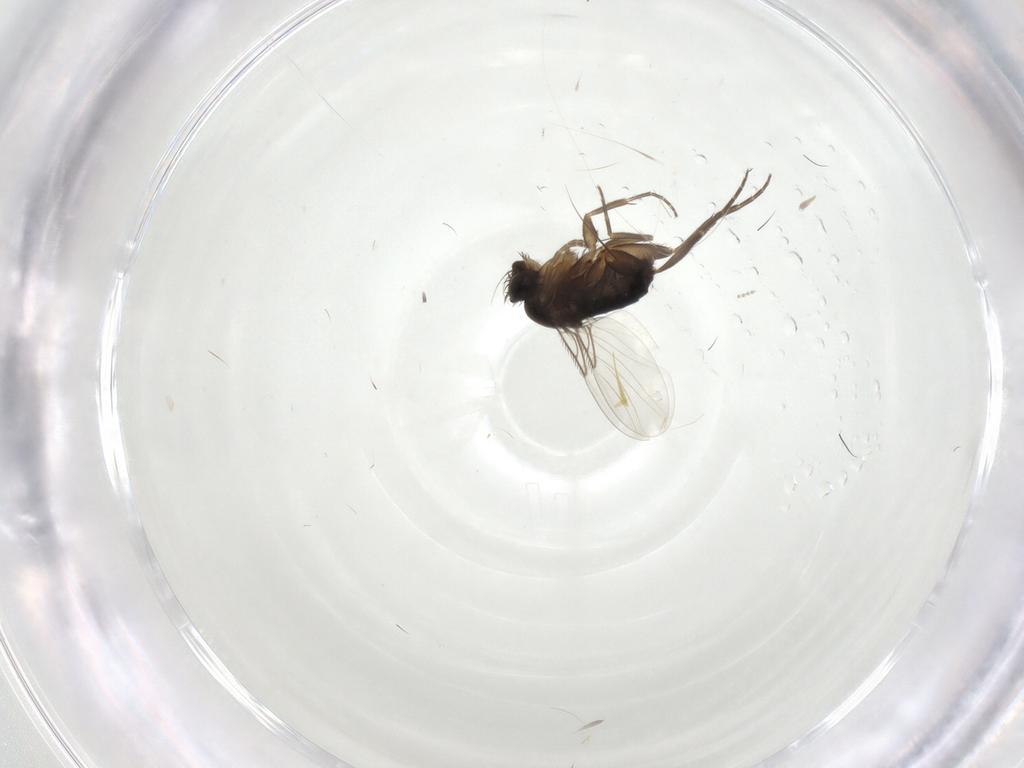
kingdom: Animalia
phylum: Arthropoda
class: Insecta
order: Diptera
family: Phoridae
